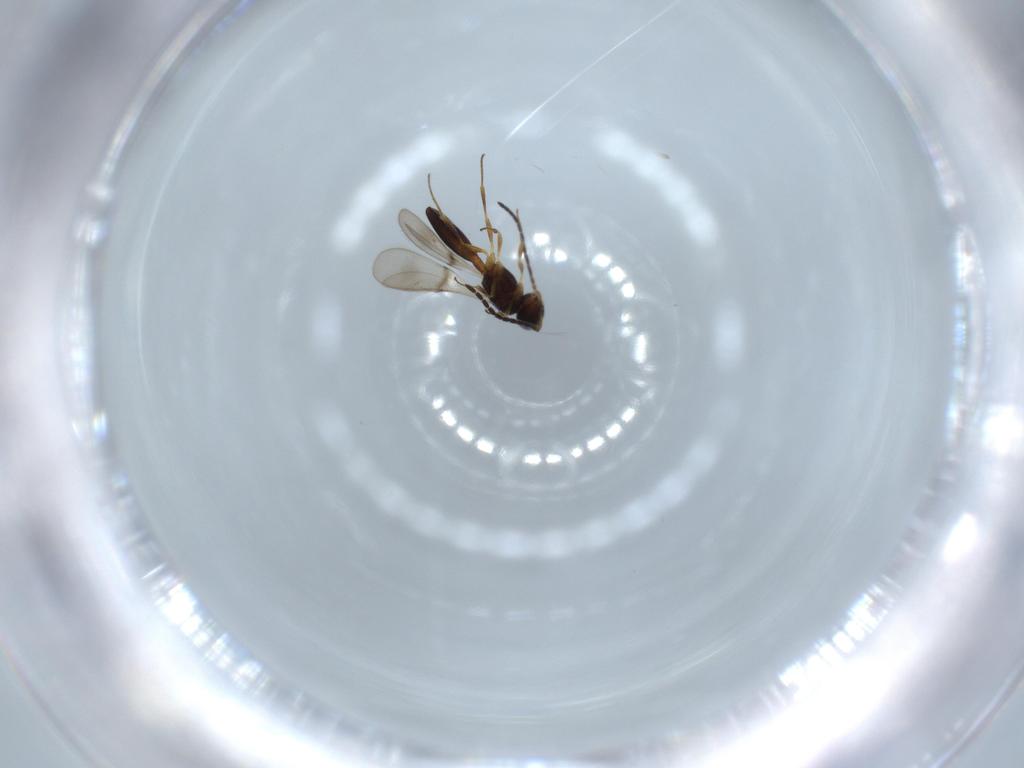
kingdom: Animalia
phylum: Arthropoda
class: Insecta
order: Hymenoptera
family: Scelionidae
